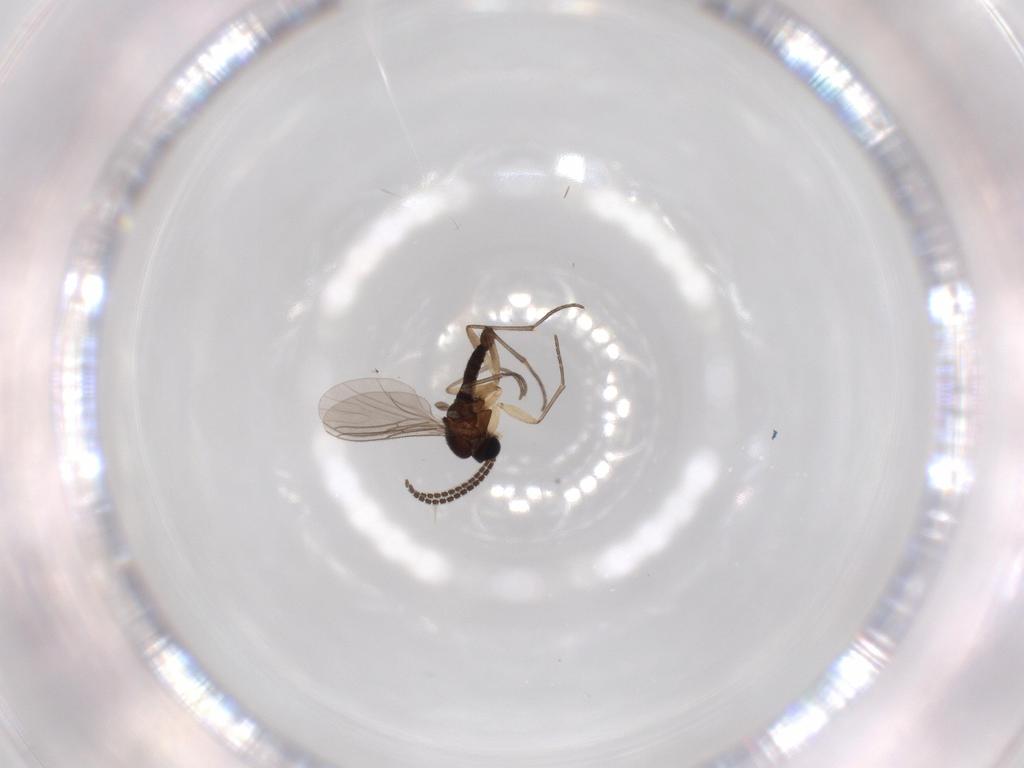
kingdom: Animalia
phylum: Arthropoda
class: Insecta
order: Diptera
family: Sciaridae
